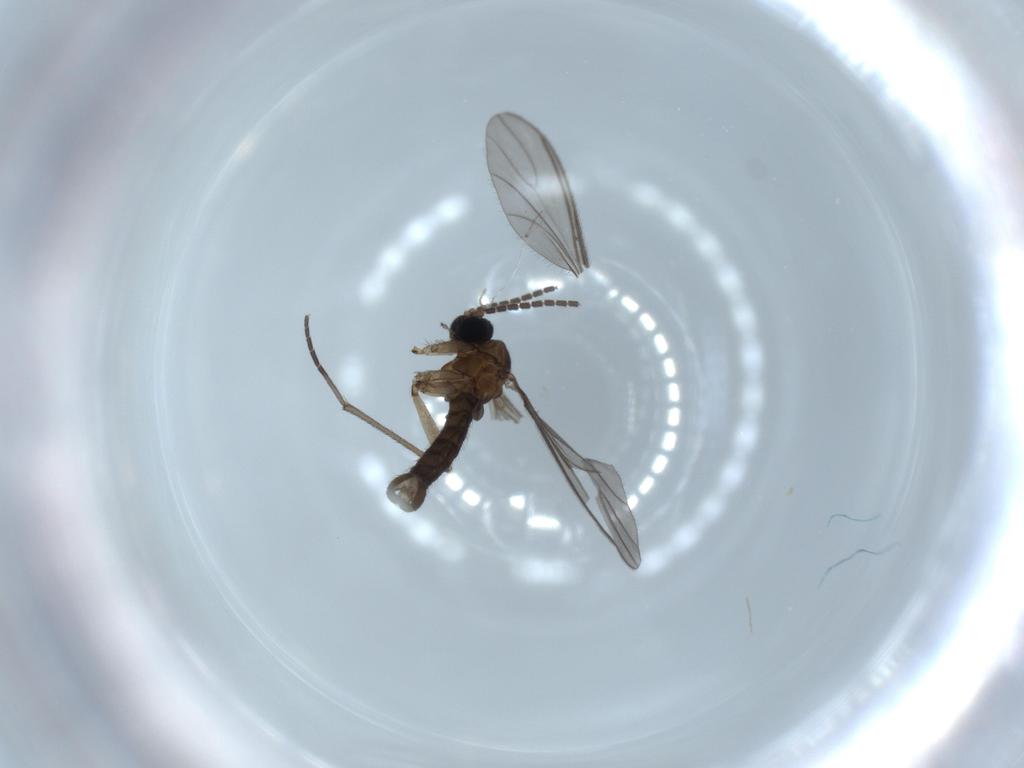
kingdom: Animalia
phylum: Arthropoda
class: Insecta
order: Diptera
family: Sciaridae
